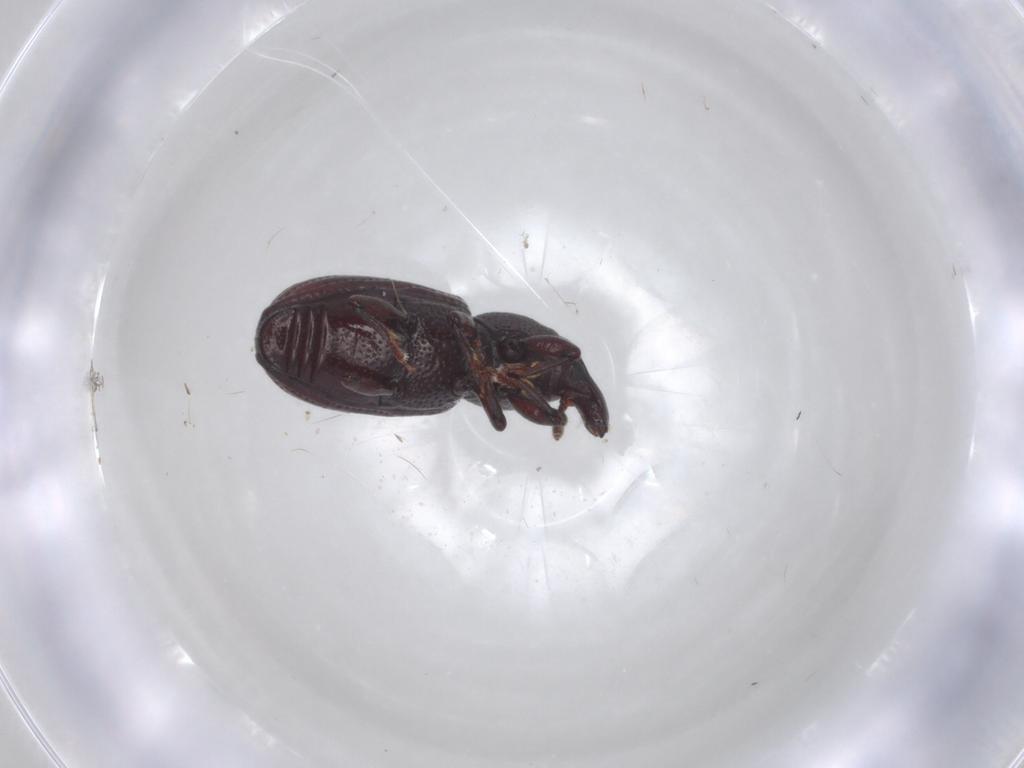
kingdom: Animalia
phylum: Arthropoda
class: Insecta
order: Coleoptera
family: Curculionidae
